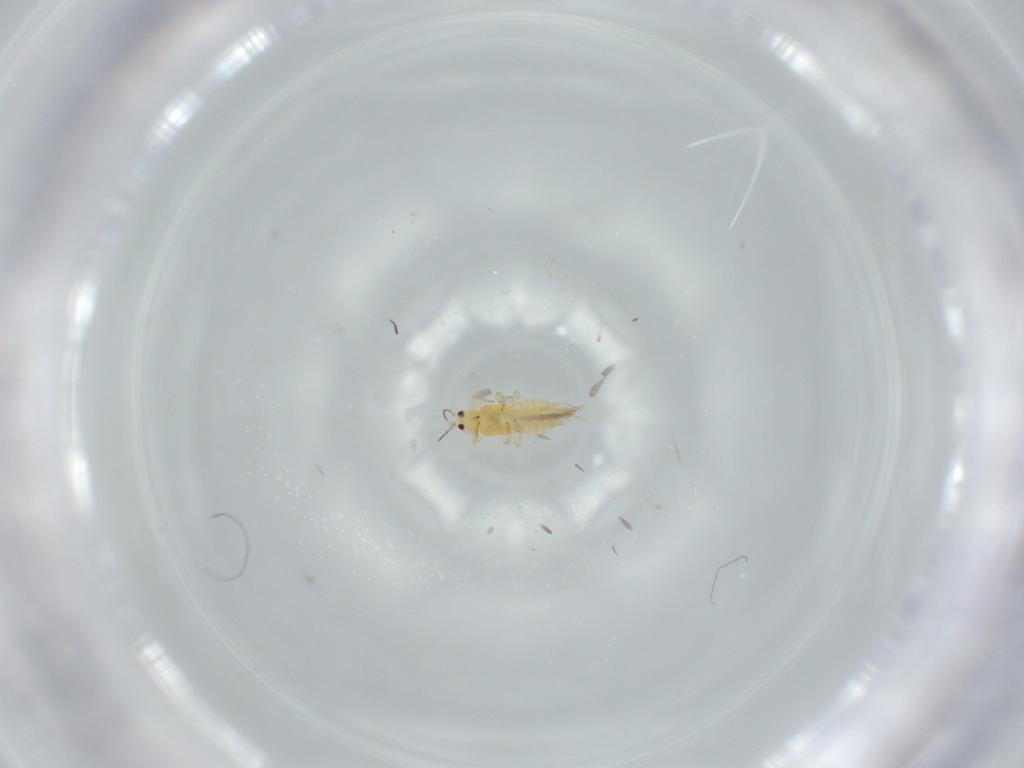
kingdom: Animalia
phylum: Arthropoda
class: Insecta
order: Thysanoptera
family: Thripidae
